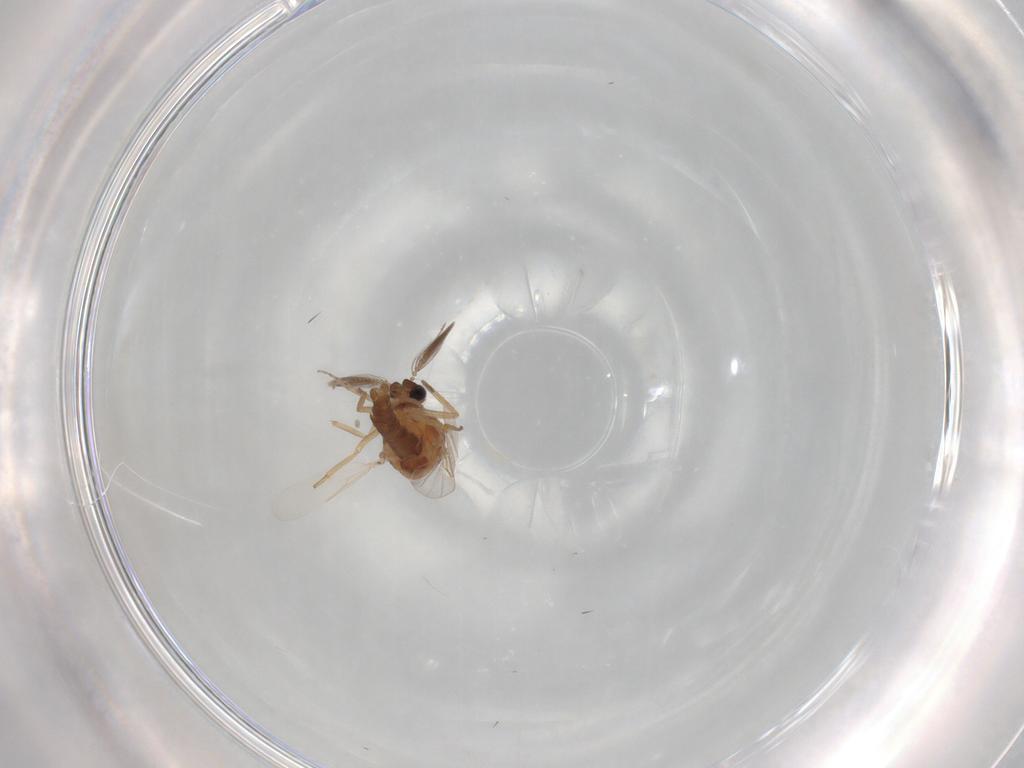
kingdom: Animalia
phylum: Arthropoda
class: Insecta
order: Diptera
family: Ceratopogonidae
